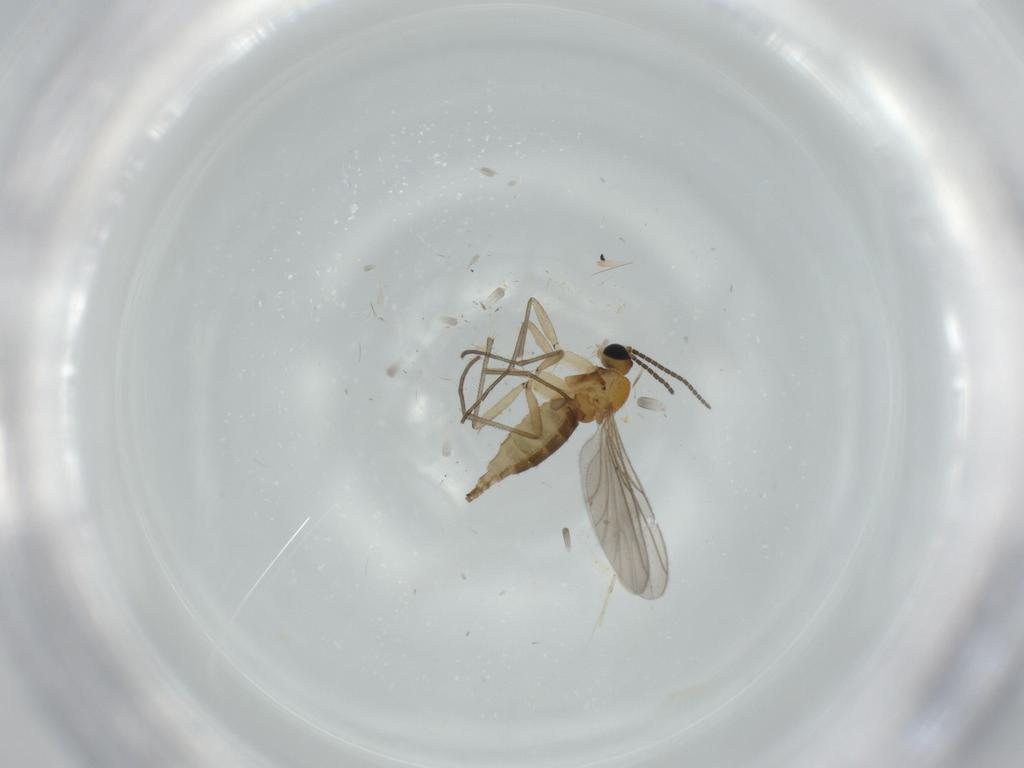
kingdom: Animalia
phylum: Arthropoda
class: Insecta
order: Diptera
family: Sciaridae
